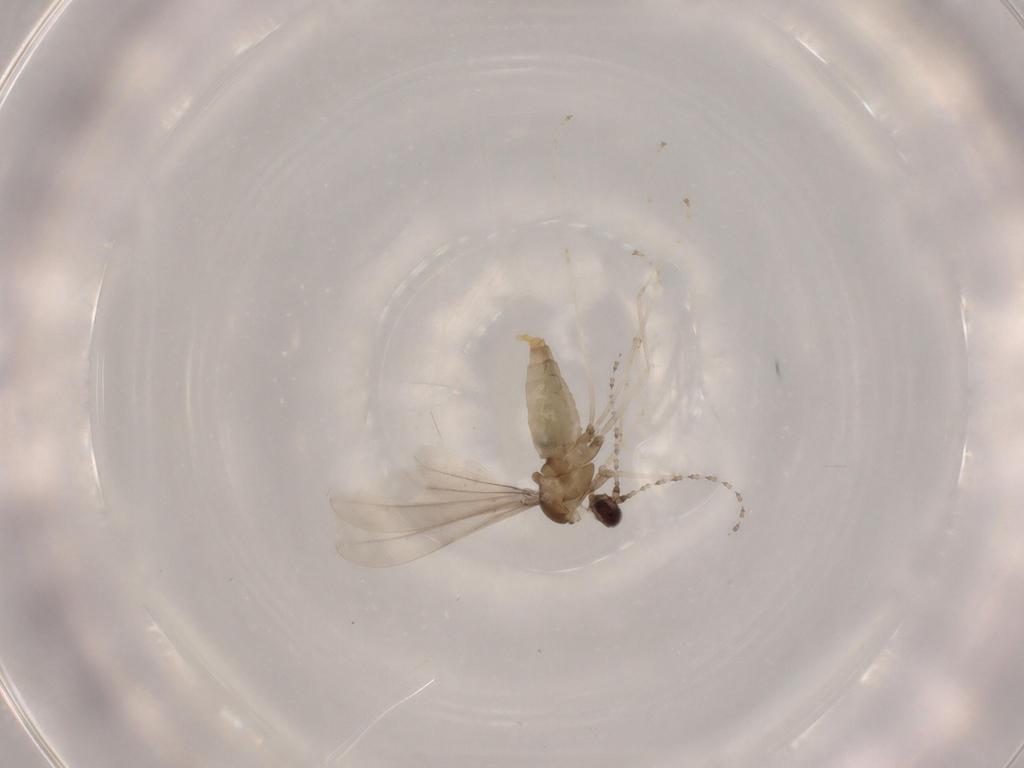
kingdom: Animalia
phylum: Arthropoda
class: Insecta
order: Diptera
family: Cecidomyiidae
